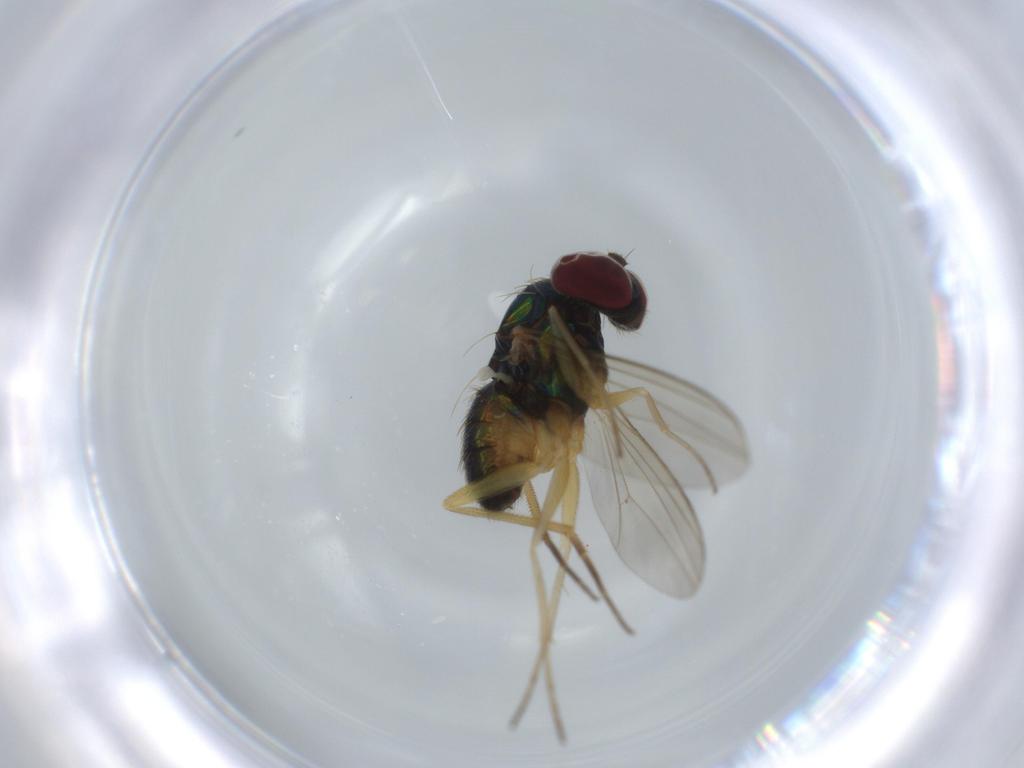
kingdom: Animalia
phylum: Arthropoda
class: Insecta
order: Diptera
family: Dolichopodidae
